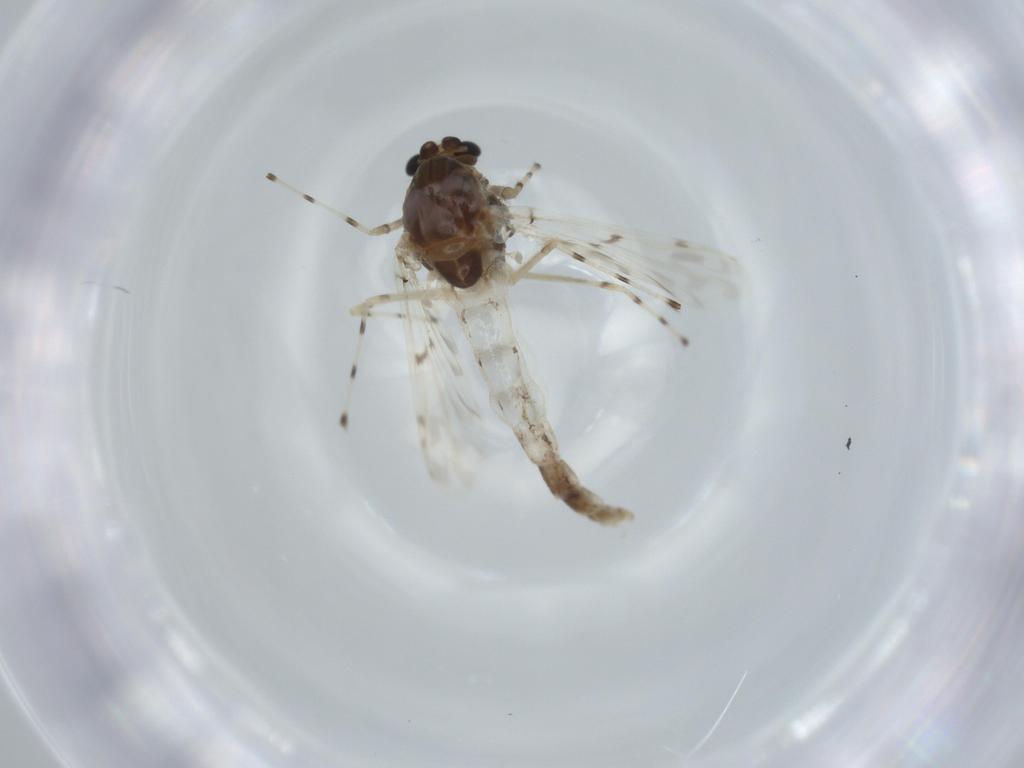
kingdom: Animalia
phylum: Arthropoda
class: Insecta
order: Diptera
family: Chironomidae
